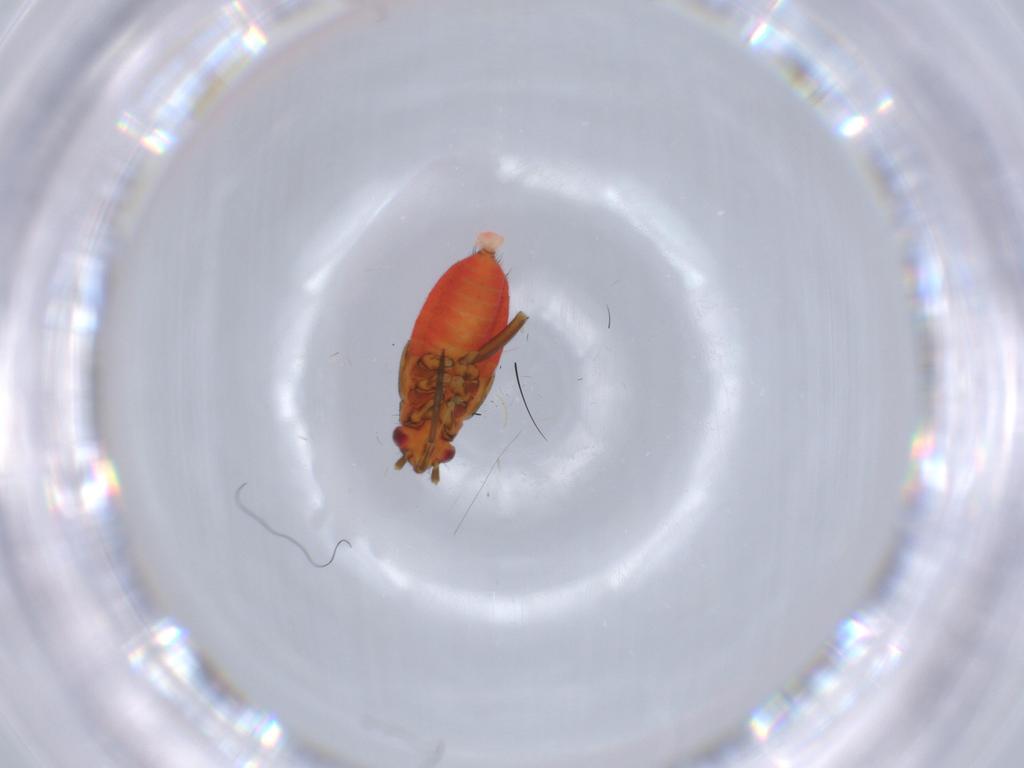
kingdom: Animalia
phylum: Arthropoda
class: Insecta
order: Hemiptera
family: Miridae
